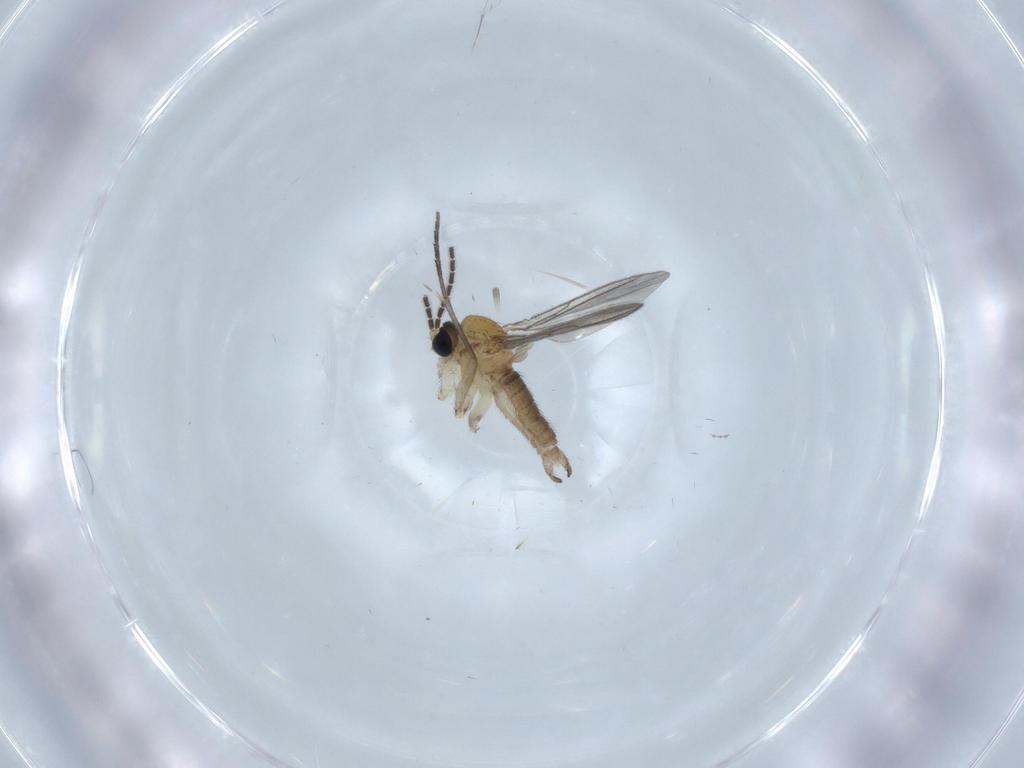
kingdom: Animalia
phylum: Arthropoda
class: Insecta
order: Diptera
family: Sciaridae
